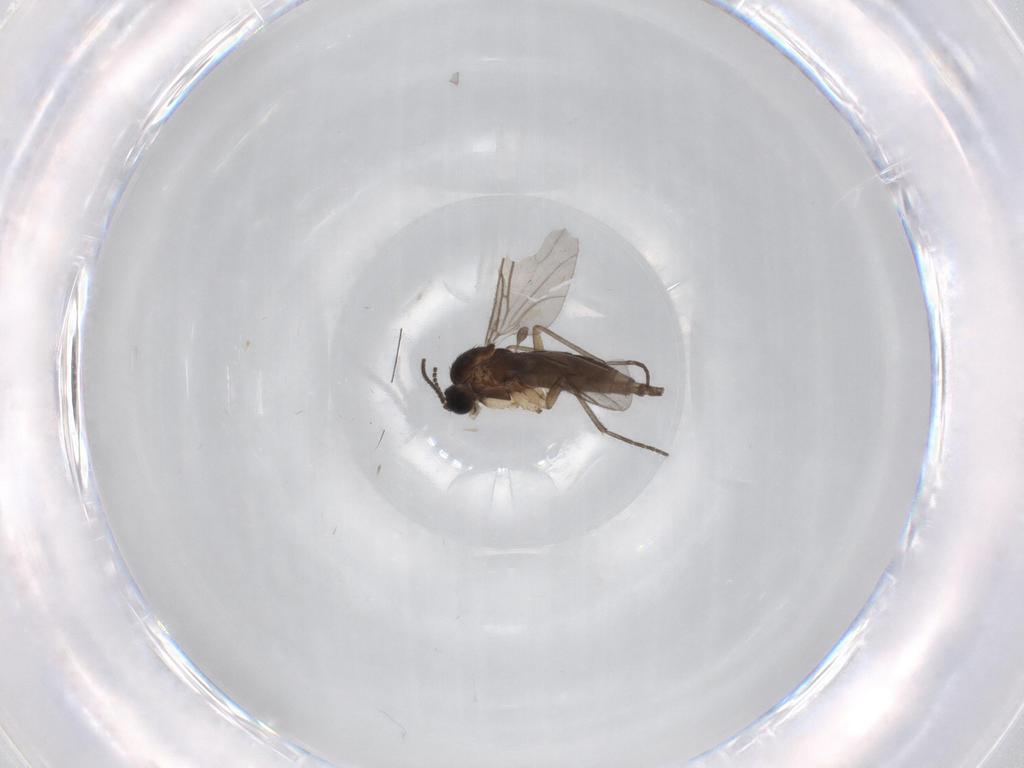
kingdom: Animalia
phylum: Arthropoda
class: Insecta
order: Diptera
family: Sciaridae
